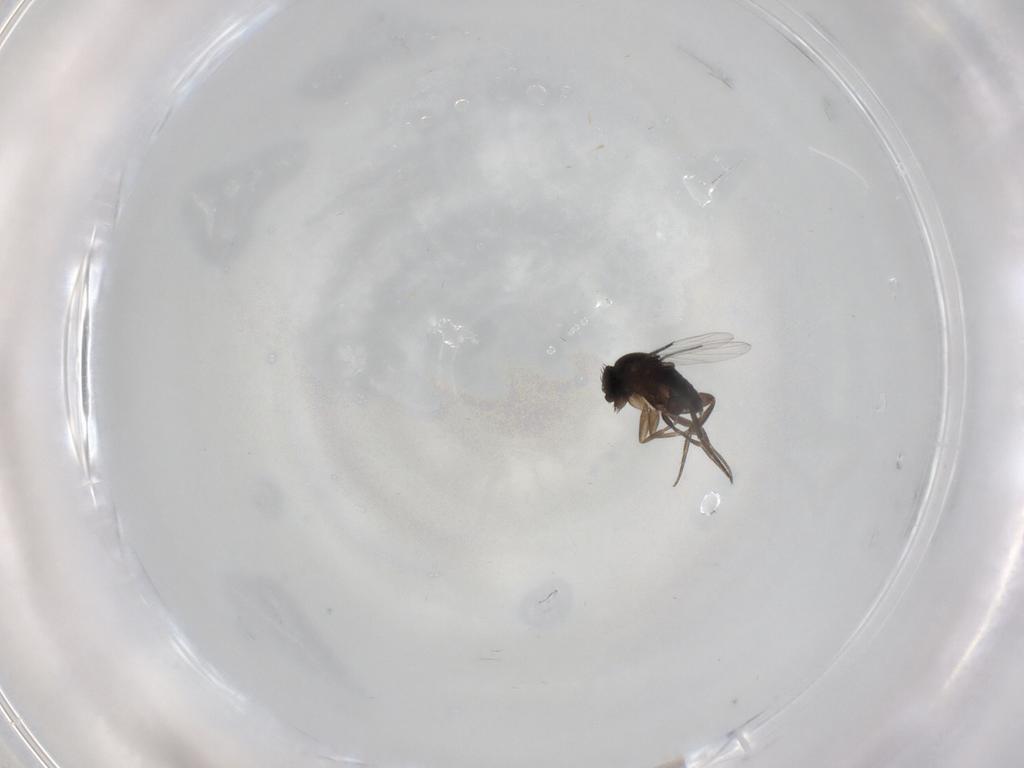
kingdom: Animalia
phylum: Arthropoda
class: Insecta
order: Diptera
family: Phoridae
